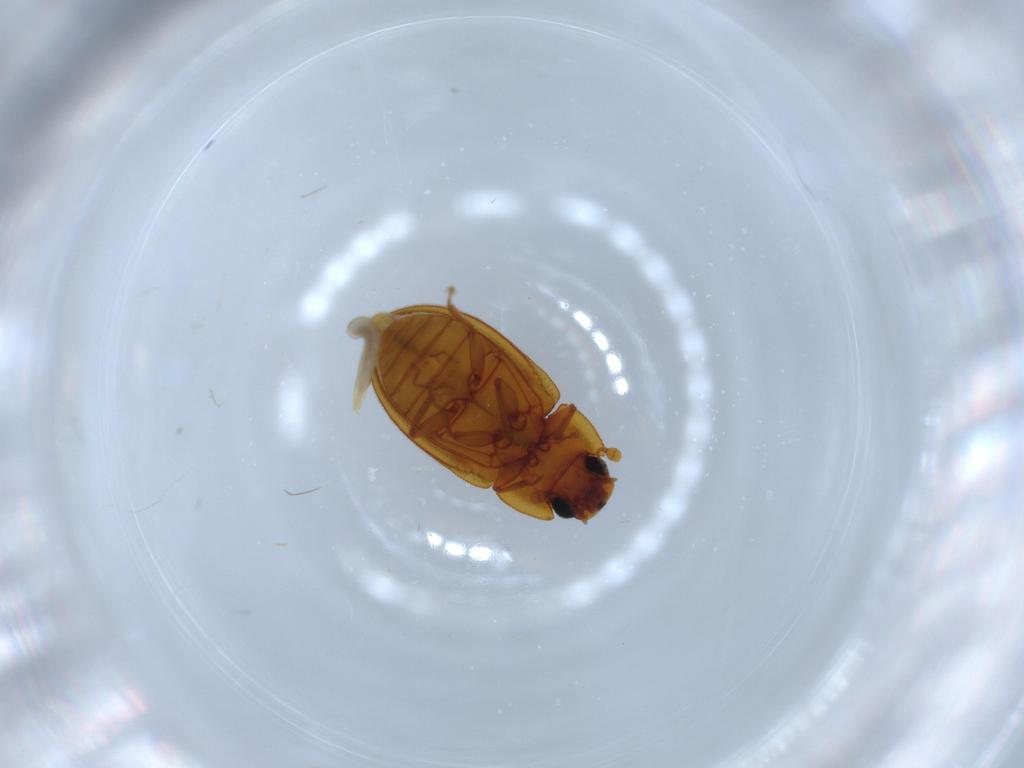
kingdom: Animalia
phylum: Arthropoda
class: Insecta
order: Coleoptera
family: Zopheridae
